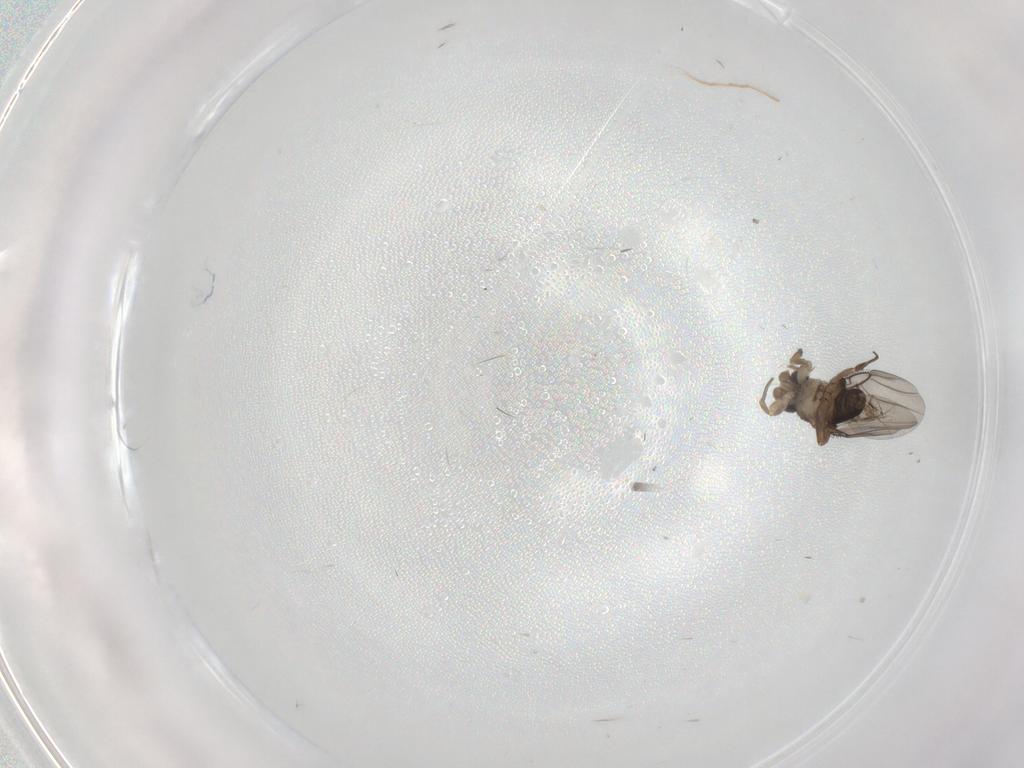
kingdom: Animalia
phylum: Arthropoda
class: Insecta
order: Diptera
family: Phoridae
